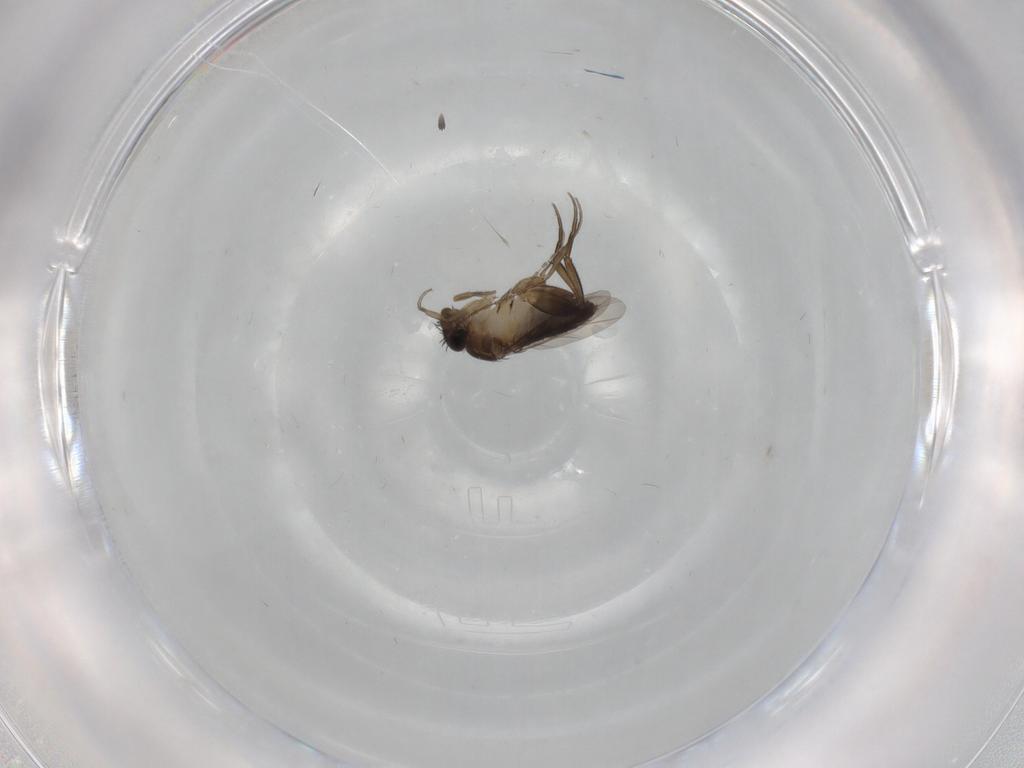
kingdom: Animalia
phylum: Arthropoda
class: Insecta
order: Diptera
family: Phoridae
